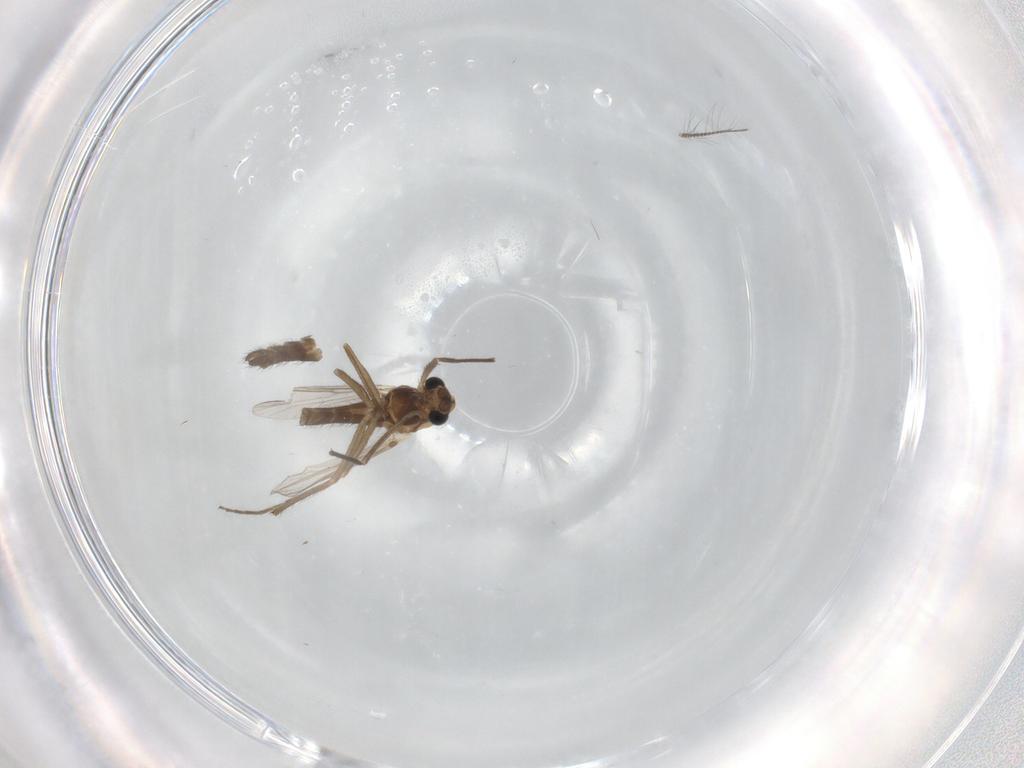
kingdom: Animalia
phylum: Arthropoda
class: Insecta
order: Diptera
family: Chironomidae
